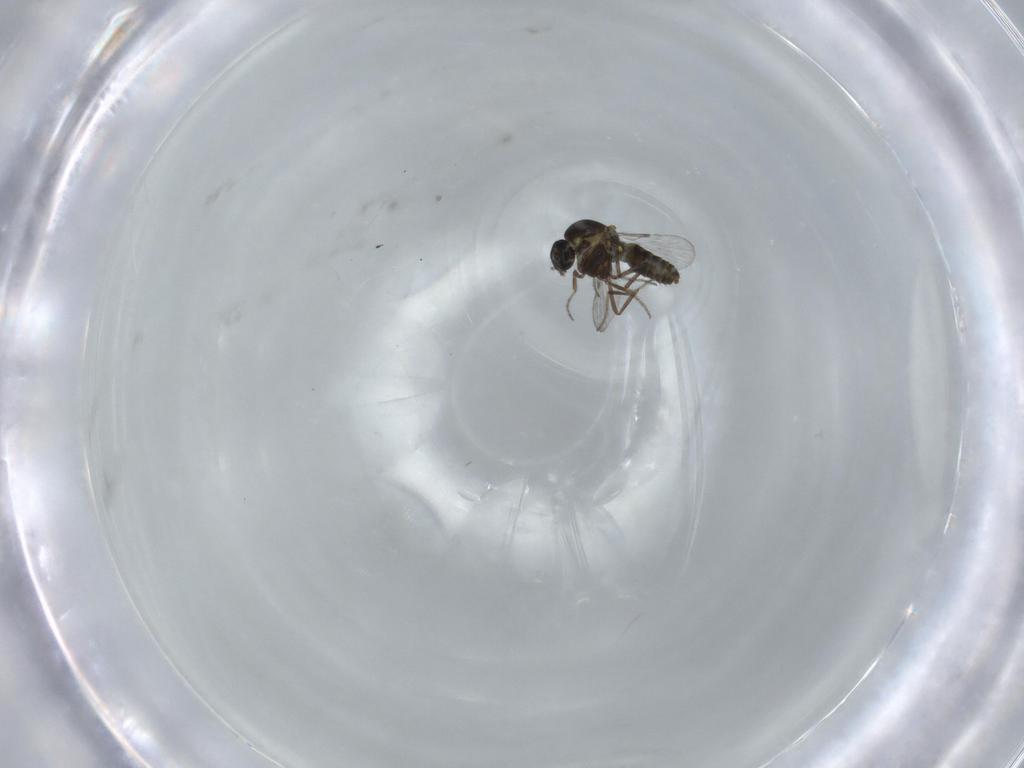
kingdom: Animalia
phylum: Arthropoda
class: Insecta
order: Diptera
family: Ceratopogonidae
